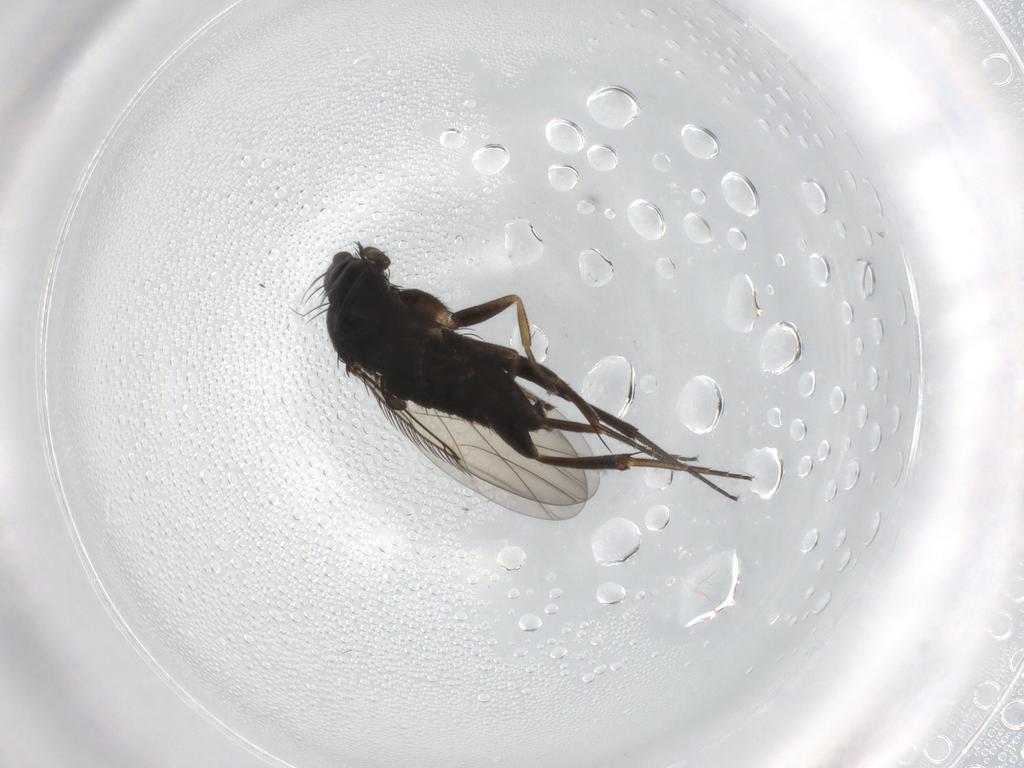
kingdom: Animalia
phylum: Arthropoda
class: Insecta
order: Diptera
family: Phoridae
